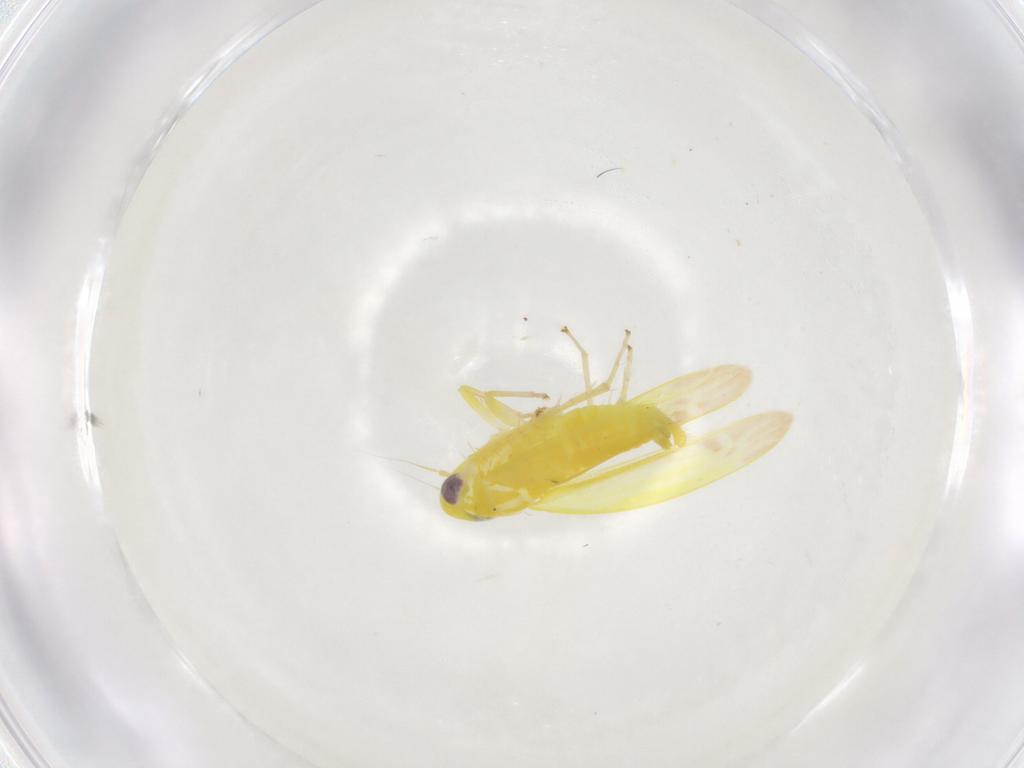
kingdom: Animalia
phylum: Arthropoda
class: Insecta
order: Hemiptera
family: Cicadellidae
